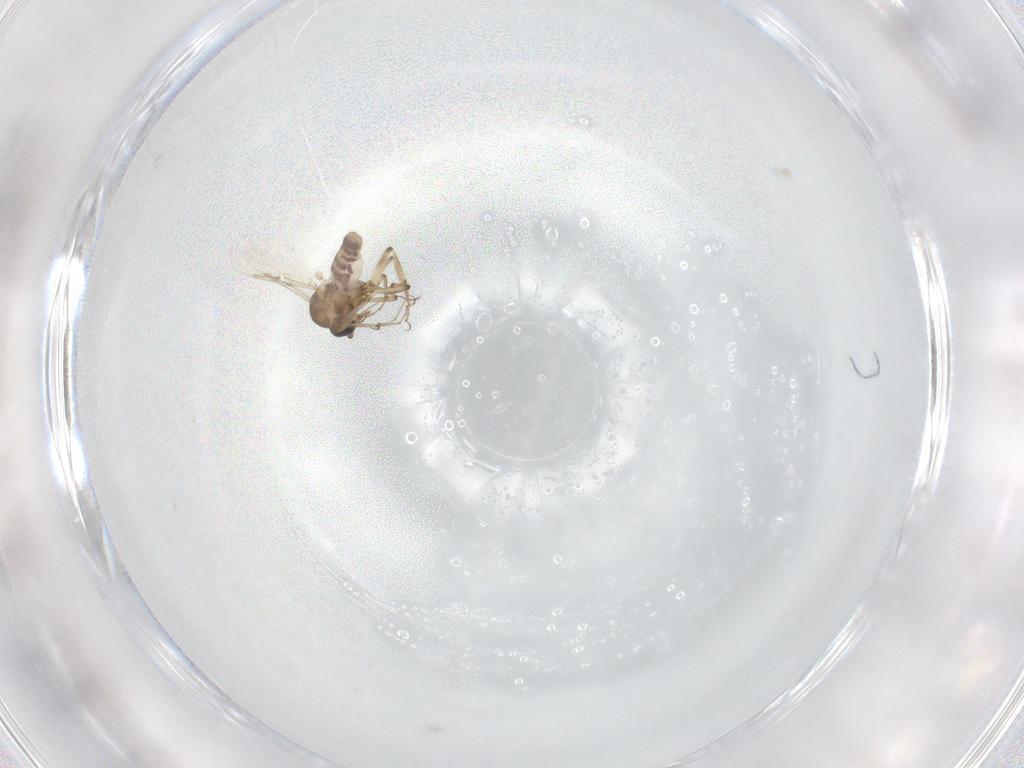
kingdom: Animalia
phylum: Arthropoda
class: Insecta
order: Diptera
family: Ceratopogonidae
